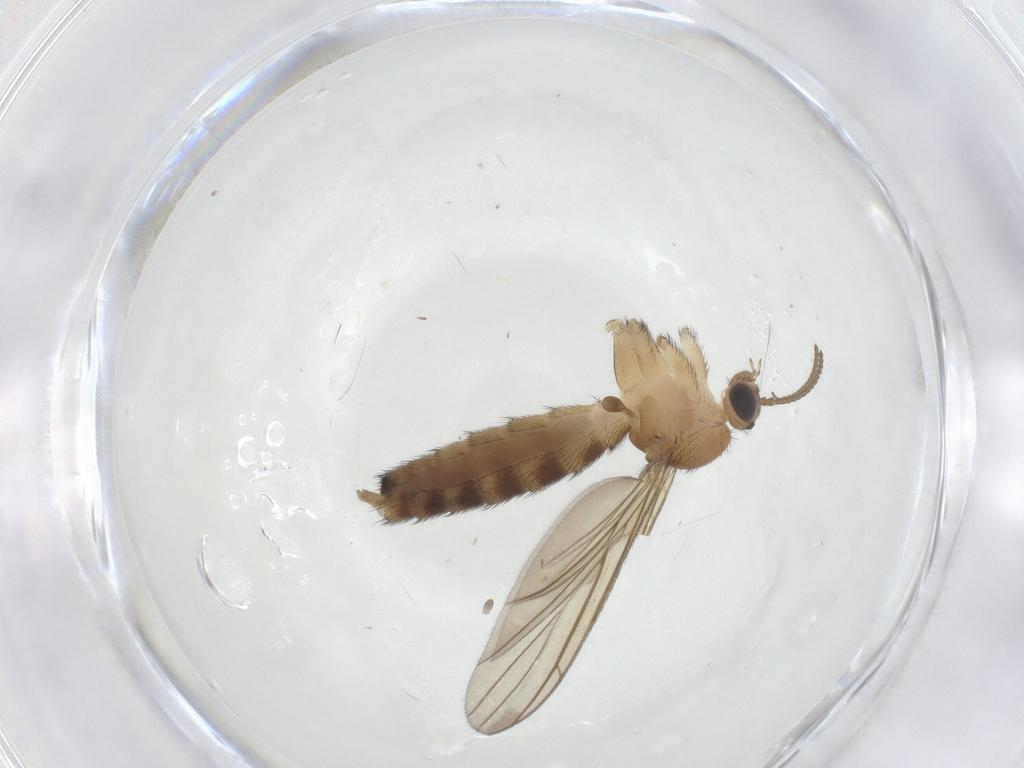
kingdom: Animalia
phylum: Arthropoda
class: Insecta
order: Diptera
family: Keroplatidae
